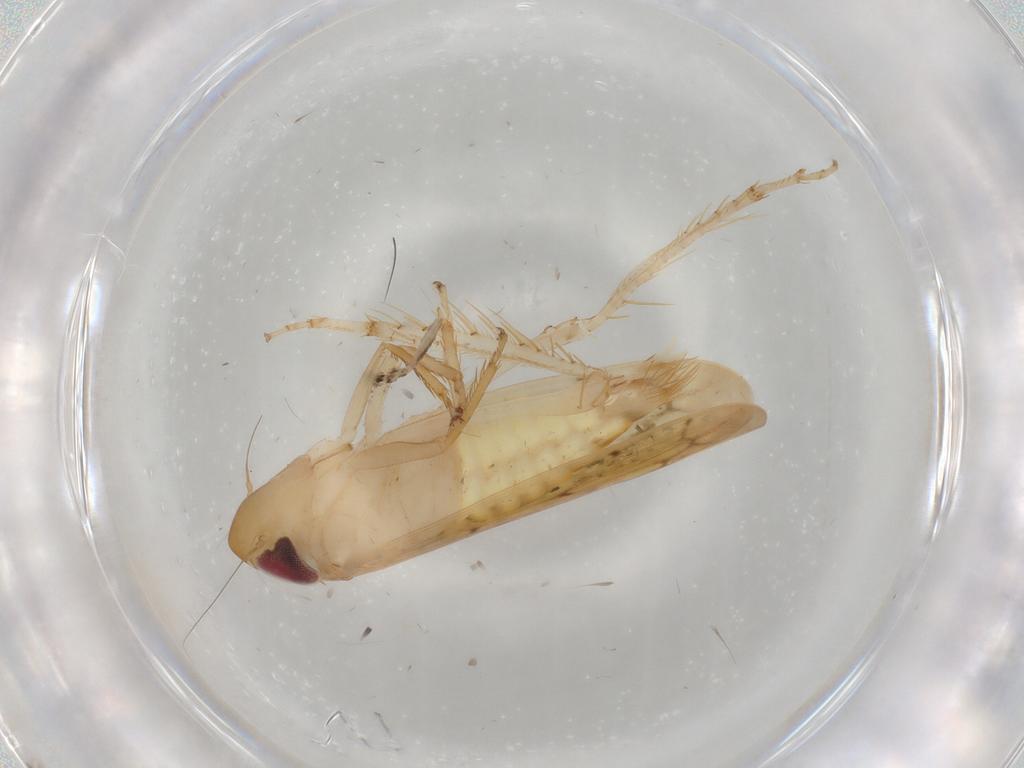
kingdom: Animalia
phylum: Arthropoda
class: Insecta
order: Hemiptera
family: Cicadellidae
